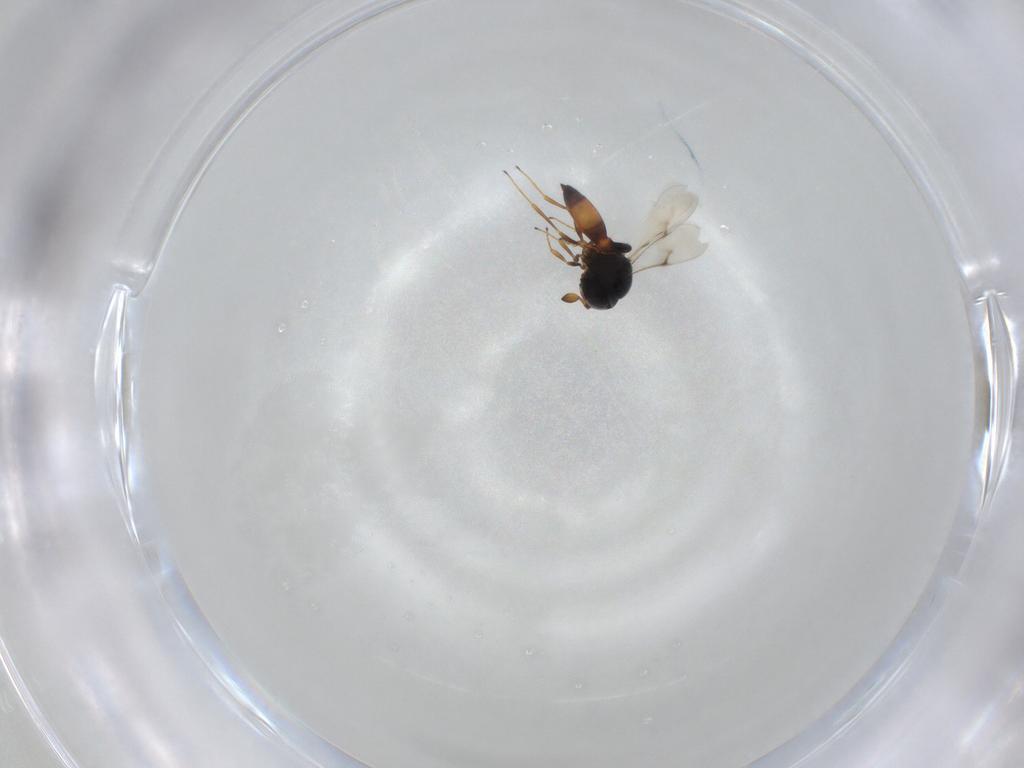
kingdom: Animalia
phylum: Arthropoda
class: Insecta
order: Hymenoptera
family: Scelionidae
